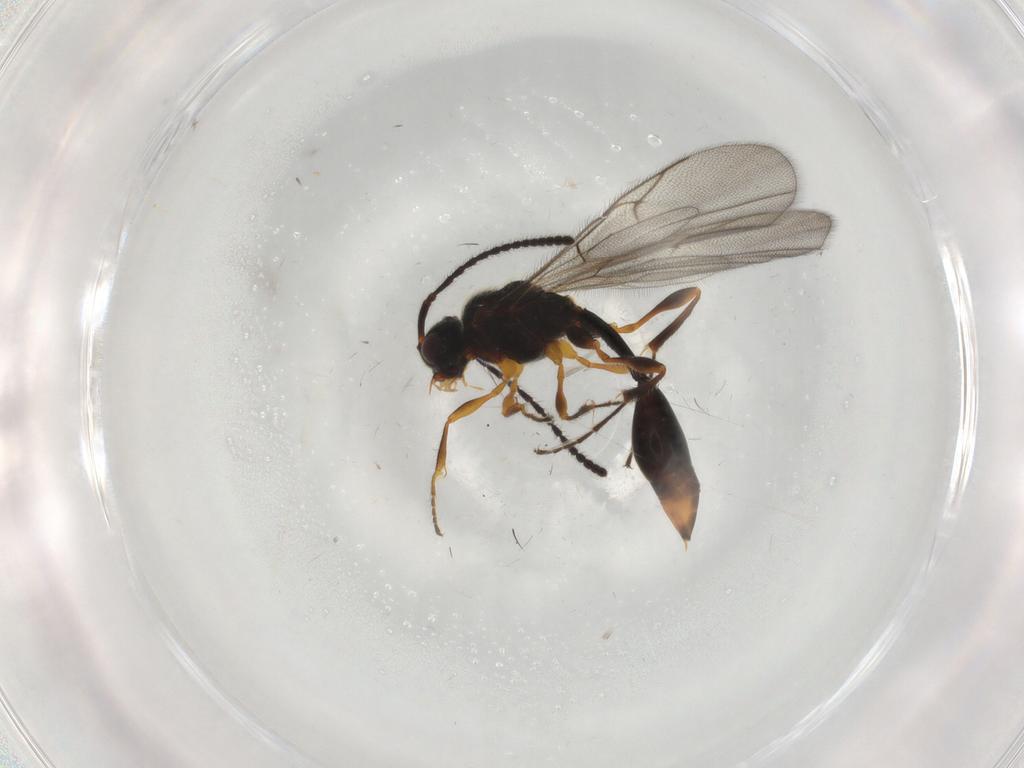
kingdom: Animalia
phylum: Arthropoda
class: Insecta
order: Hymenoptera
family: Diapriidae
